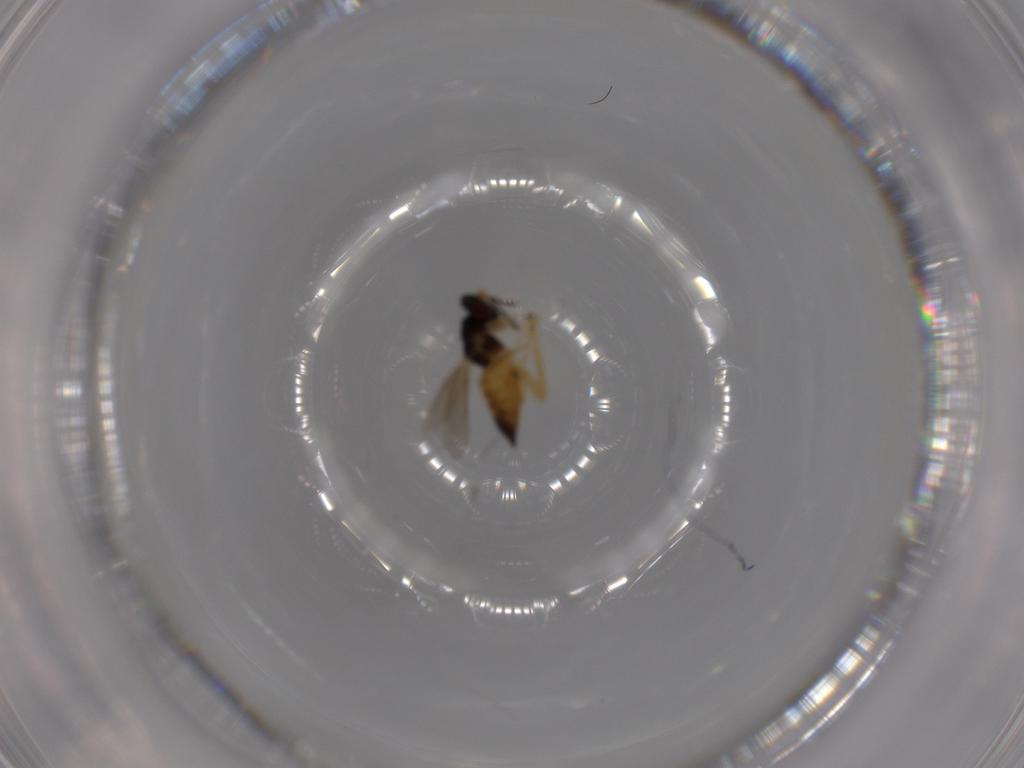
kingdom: Animalia
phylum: Arthropoda
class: Insecta
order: Hymenoptera
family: Eulophidae
